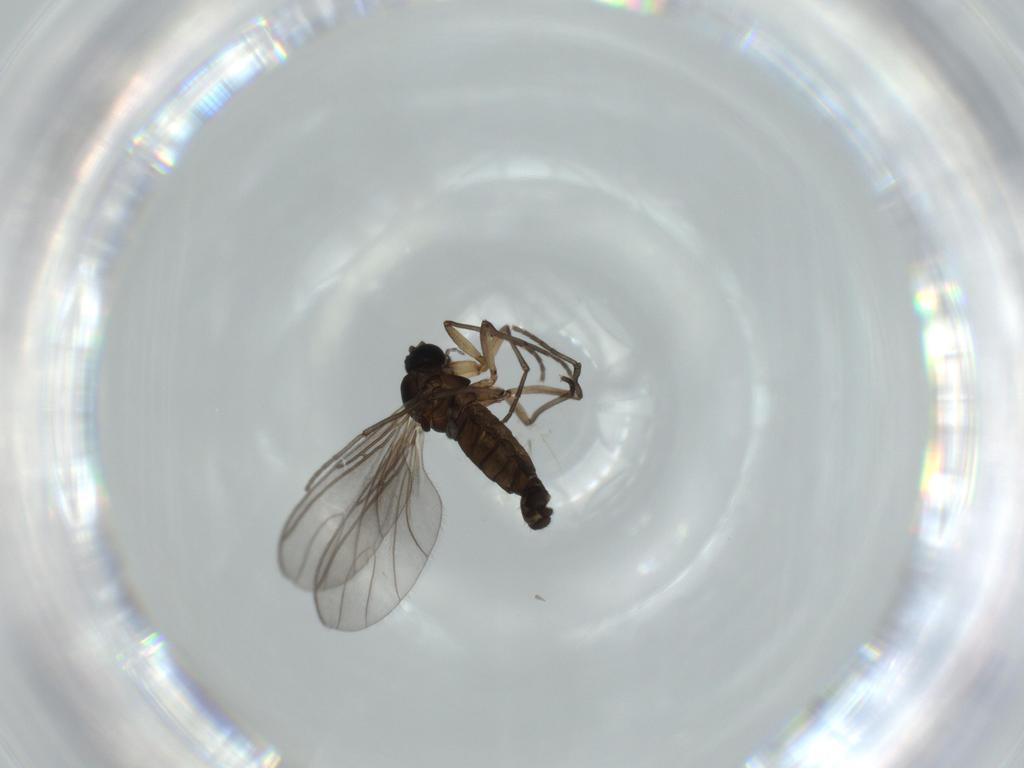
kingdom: Animalia
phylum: Arthropoda
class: Insecta
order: Diptera
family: Sciaridae
